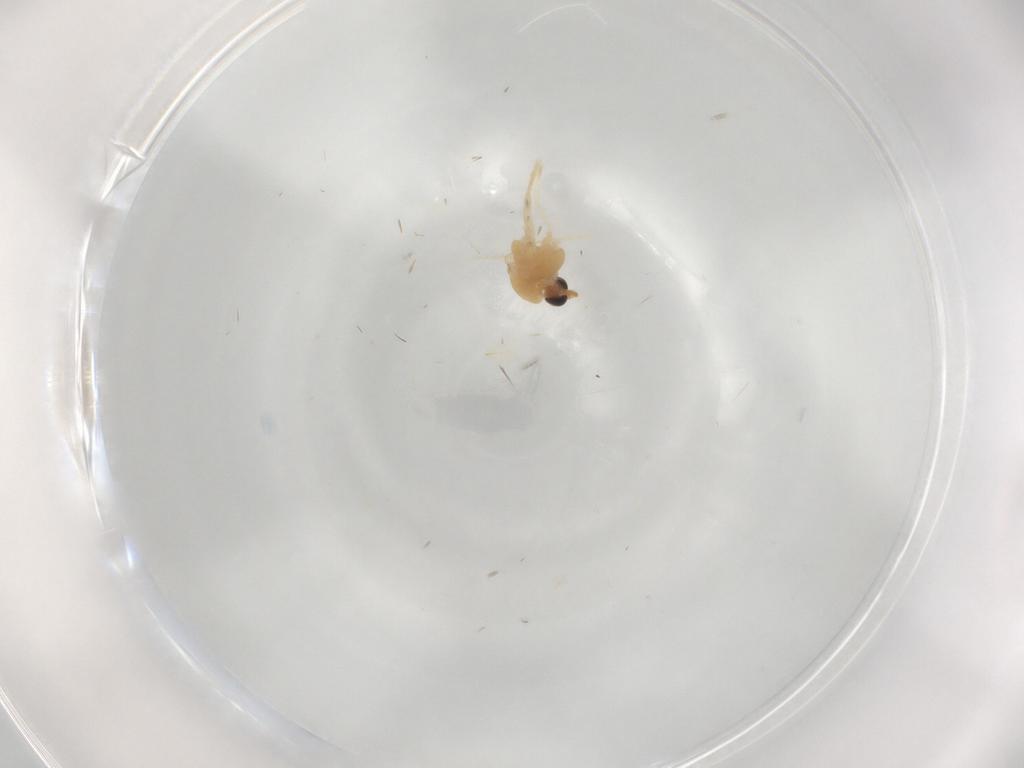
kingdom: Animalia
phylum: Arthropoda
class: Insecta
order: Diptera
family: Chironomidae
